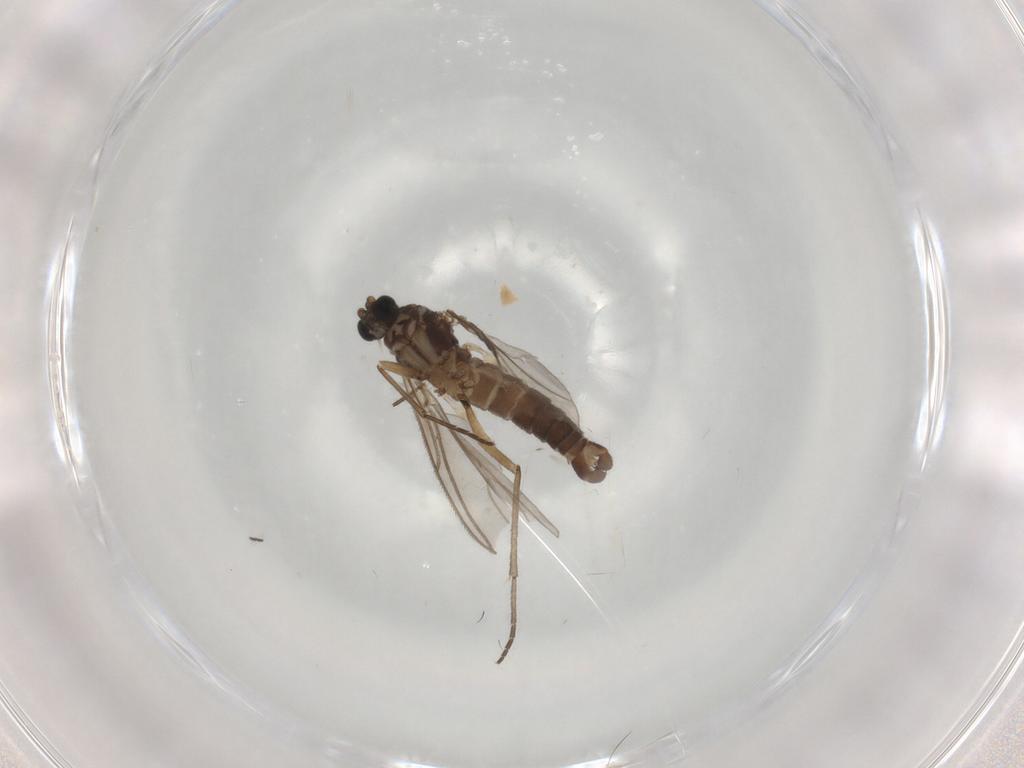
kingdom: Animalia
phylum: Arthropoda
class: Insecta
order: Diptera
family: Sciaridae
